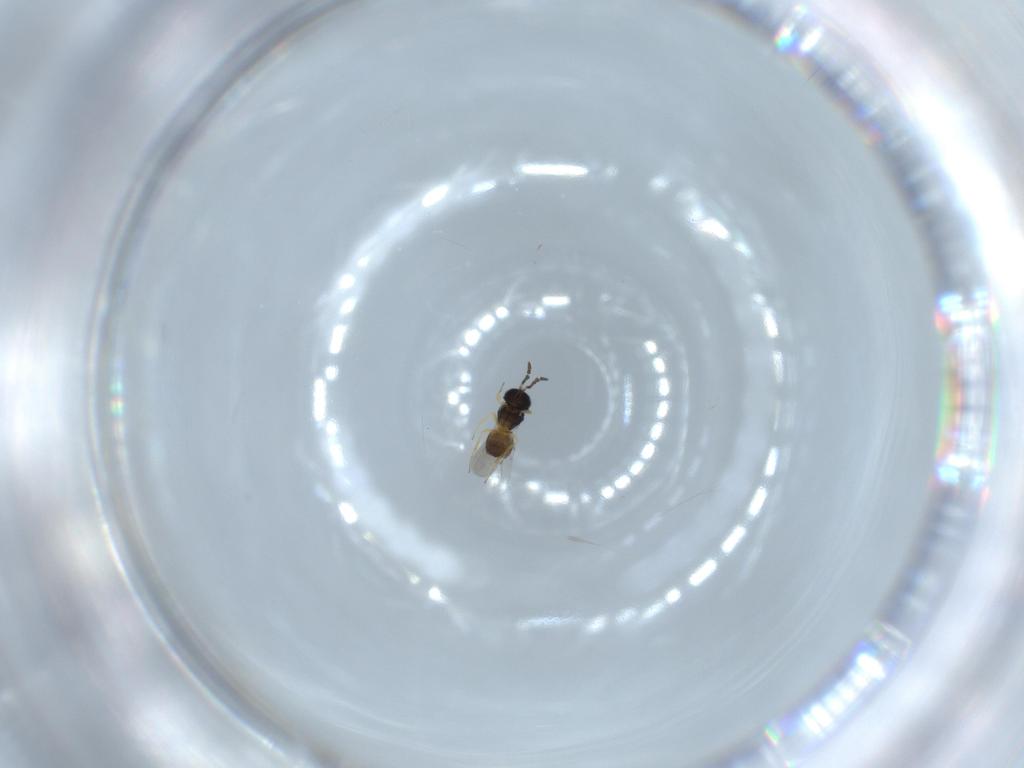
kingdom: Animalia
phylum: Arthropoda
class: Insecta
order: Hymenoptera
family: Scelionidae
